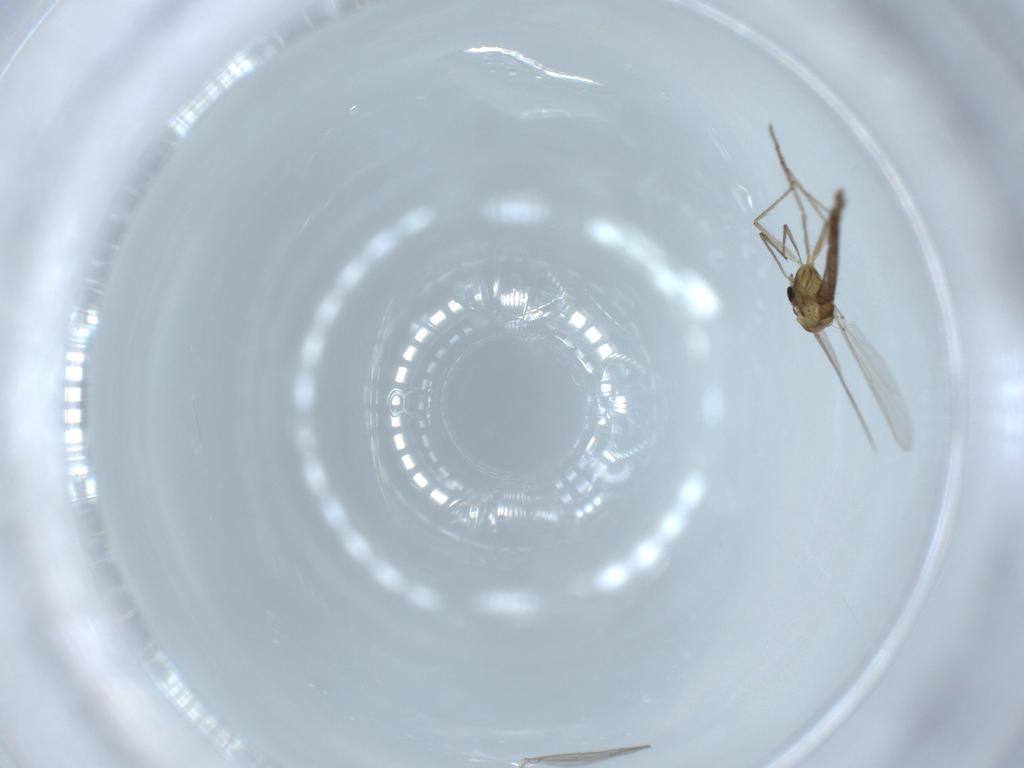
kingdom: Animalia
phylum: Arthropoda
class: Insecta
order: Diptera
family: Chironomidae
